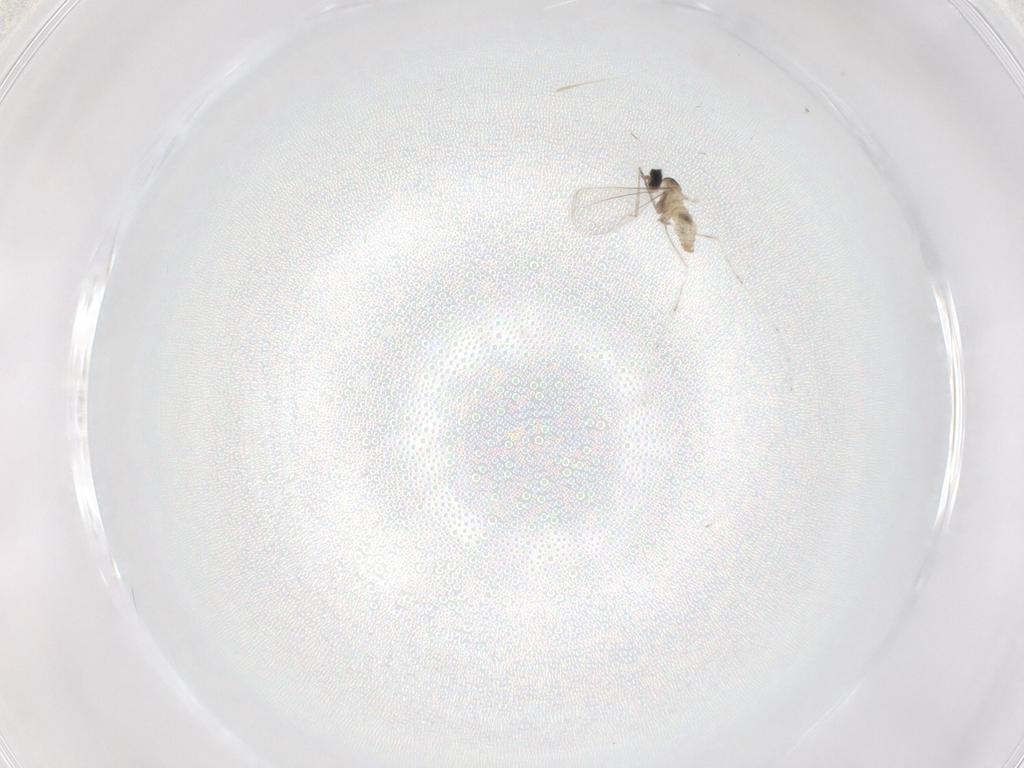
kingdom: Animalia
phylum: Arthropoda
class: Insecta
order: Diptera
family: Cecidomyiidae
